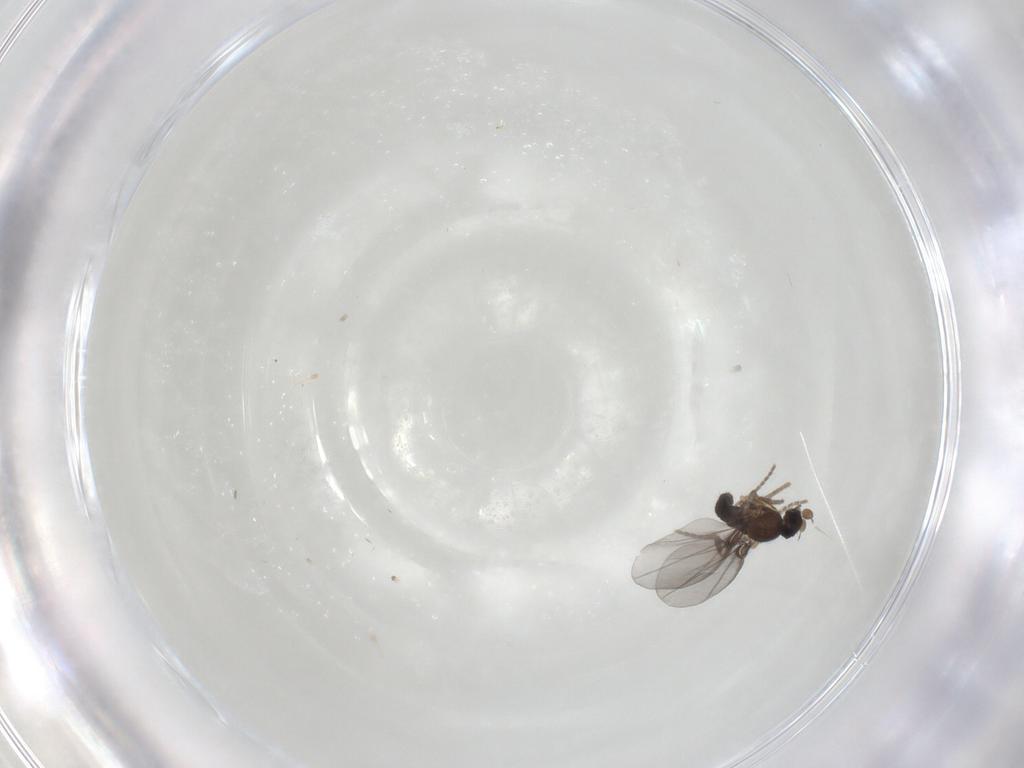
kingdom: Animalia
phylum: Arthropoda
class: Insecta
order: Diptera
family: Phoridae
